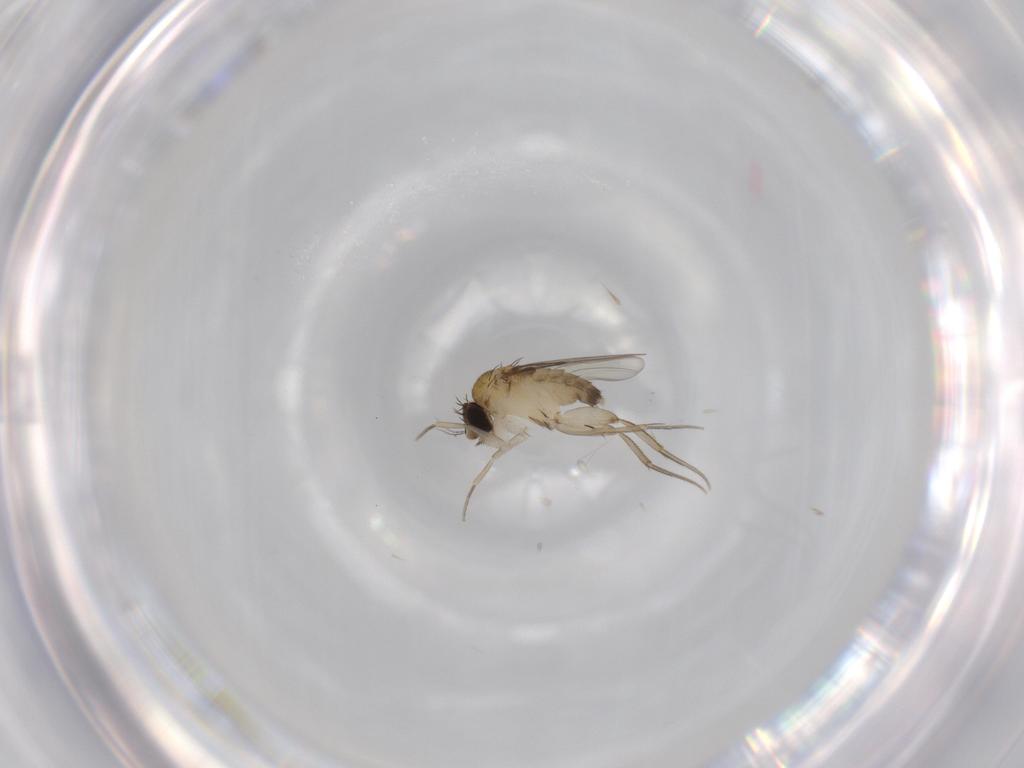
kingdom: Animalia
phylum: Arthropoda
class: Insecta
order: Diptera
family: Phoridae
